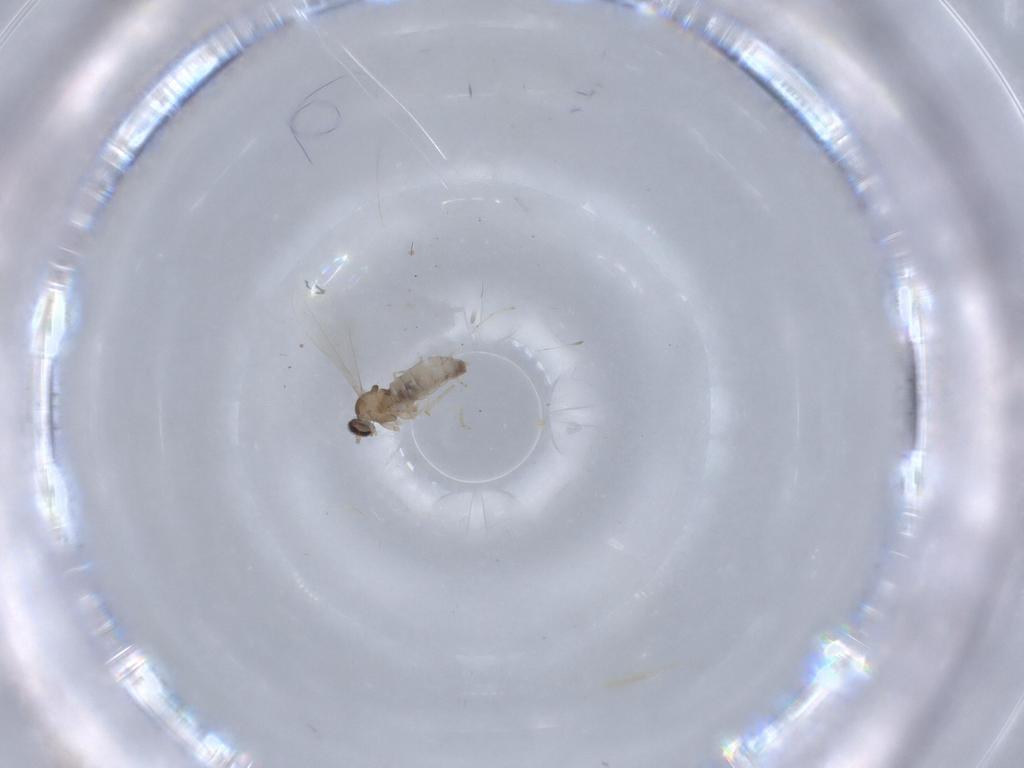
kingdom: Animalia
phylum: Arthropoda
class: Insecta
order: Diptera
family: Cecidomyiidae
